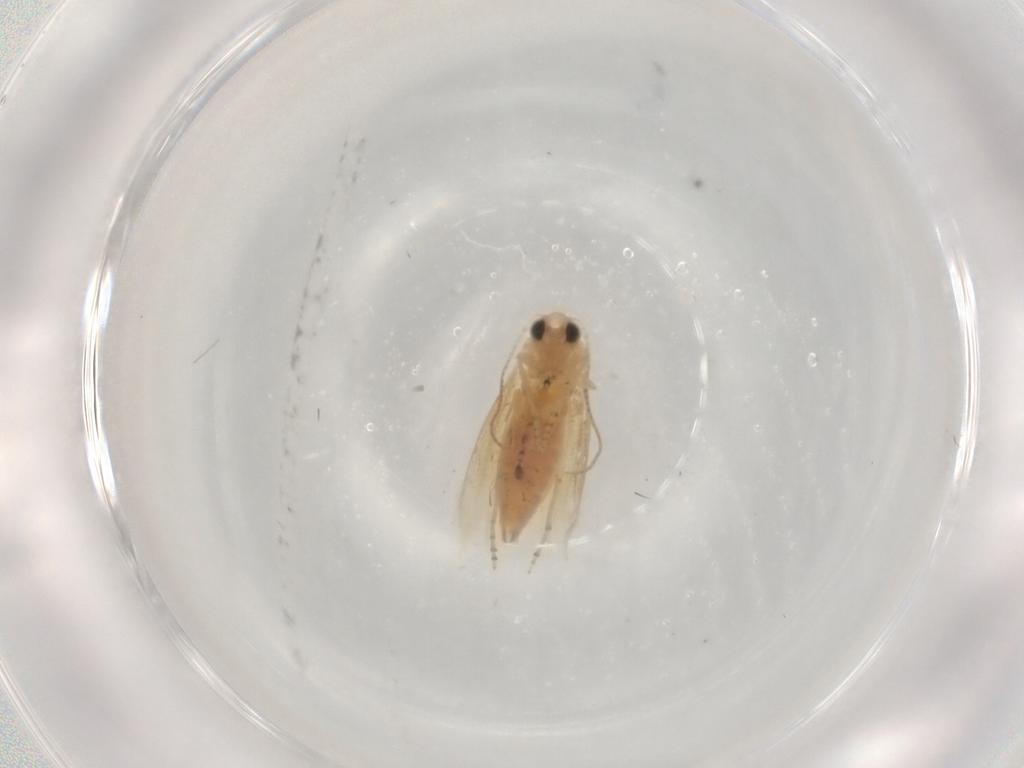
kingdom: Animalia
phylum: Arthropoda
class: Insecta
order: Lepidoptera
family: Bucculatricidae
